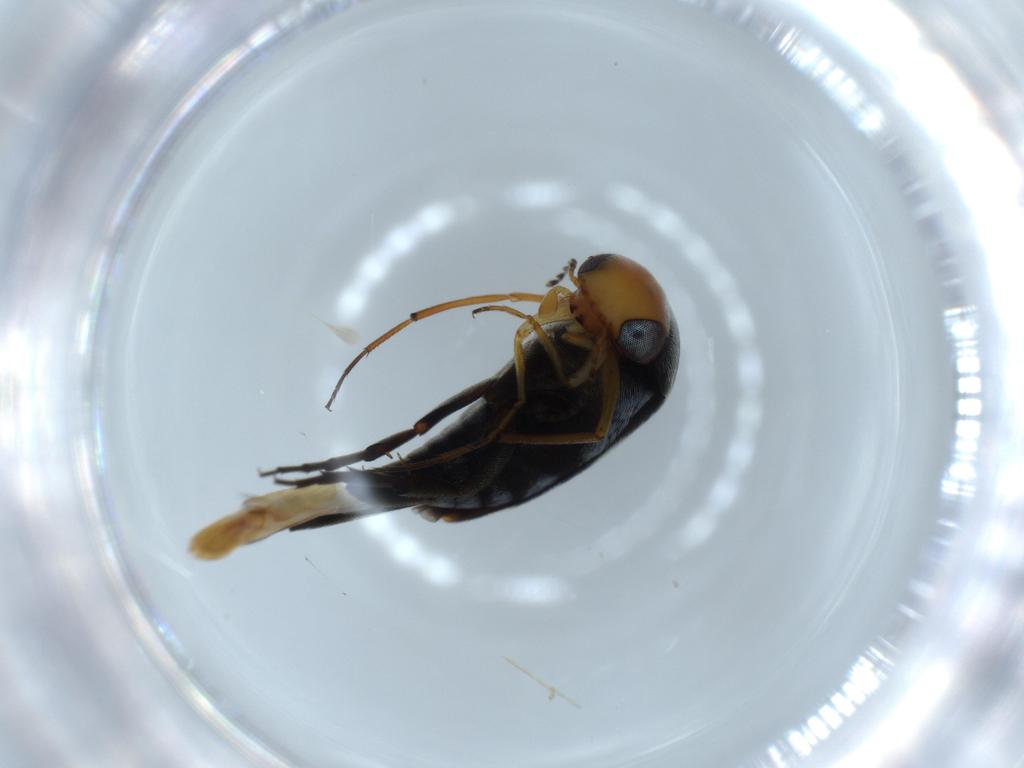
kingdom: Animalia
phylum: Arthropoda
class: Insecta
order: Coleoptera
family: Mordellidae
